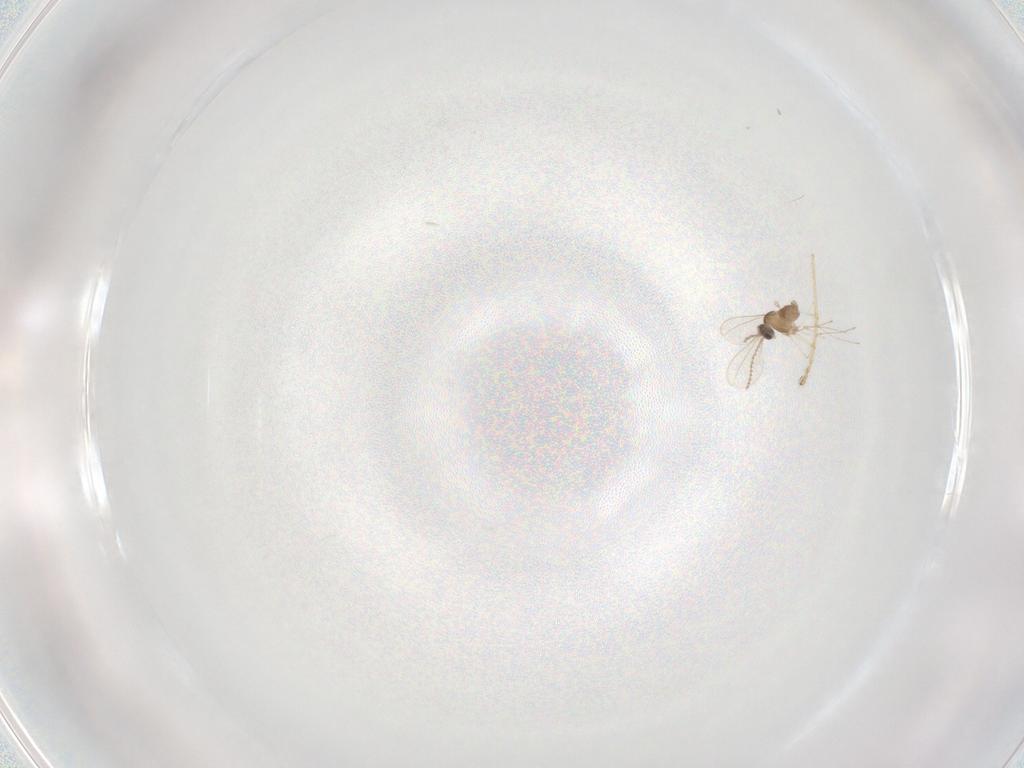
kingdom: Animalia
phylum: Arthropoda
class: Insecta
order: Diptera
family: Cecidomyiidae
